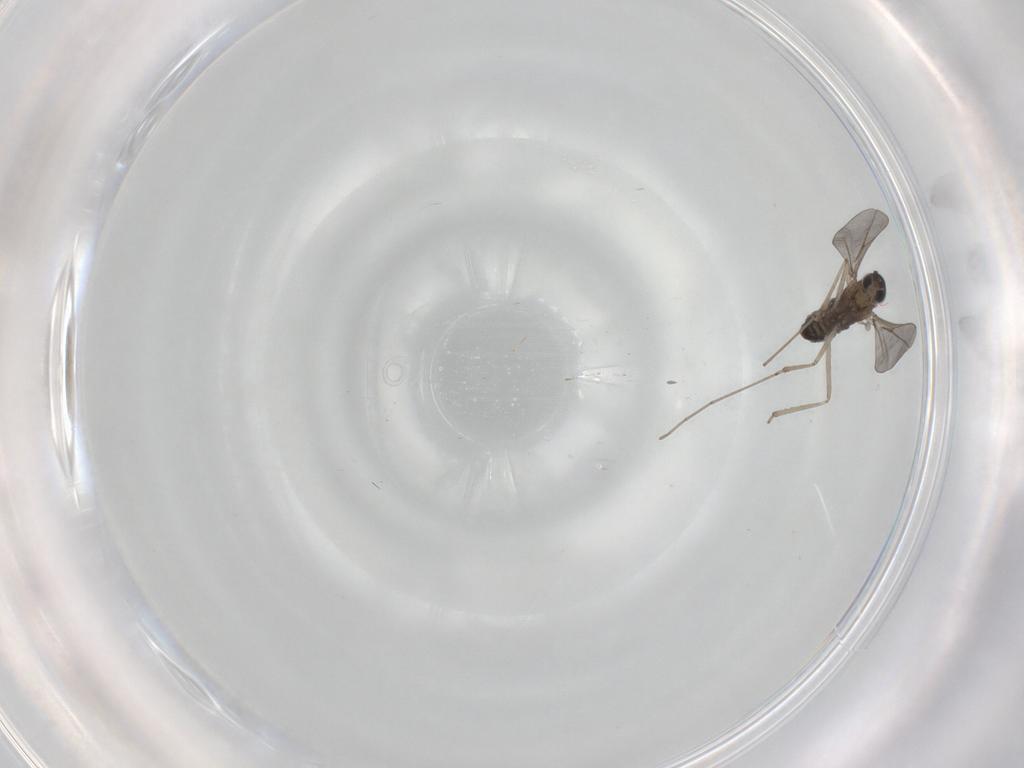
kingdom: Animalia
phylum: Arthropoda
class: Insecta
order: Diptera
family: Cecidomyiidae
